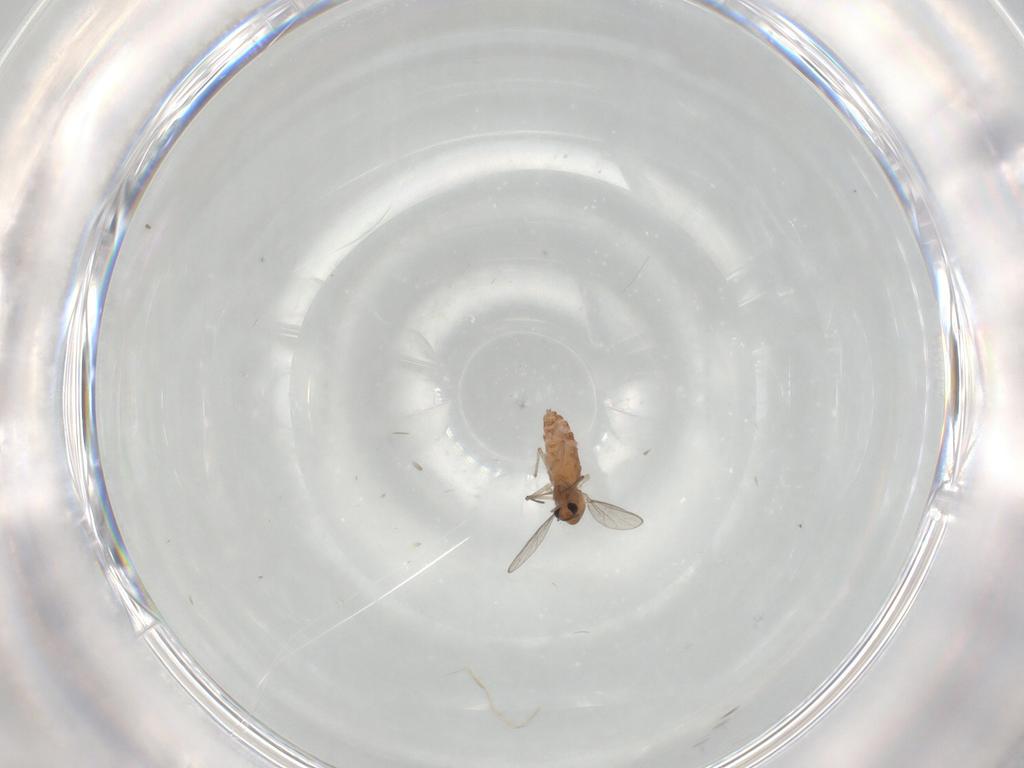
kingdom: Animalia
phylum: Arthropoda
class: Insecta
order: Diptera
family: Chironomidae
